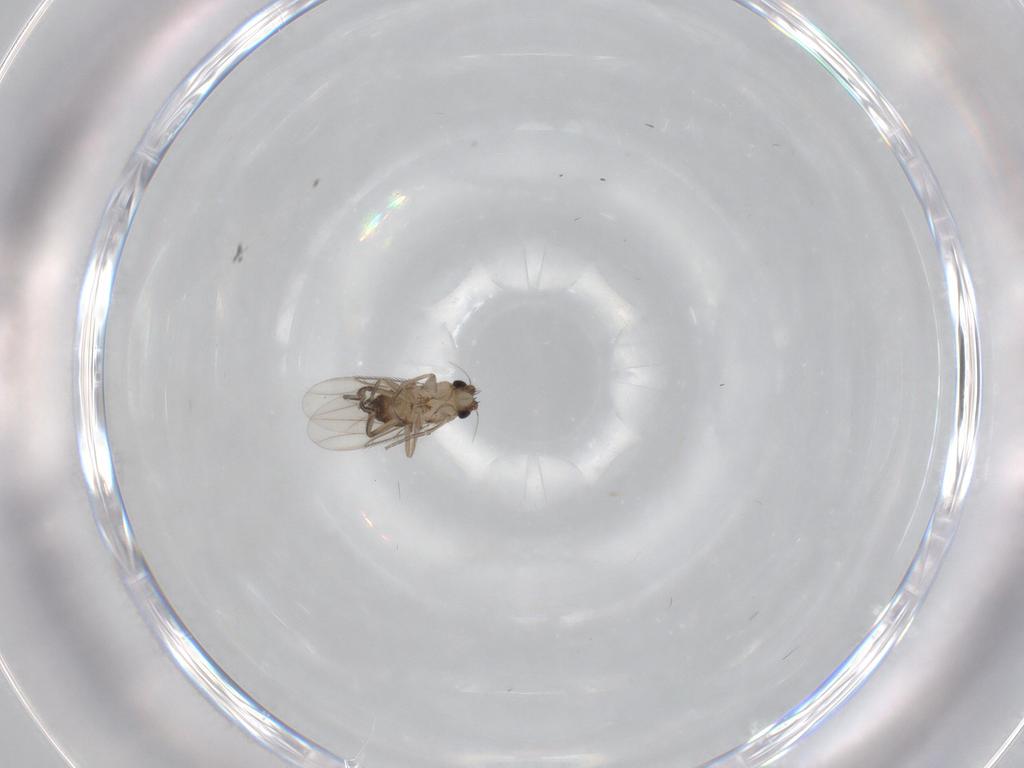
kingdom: Animalia
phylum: Arthropoda
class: Insecta
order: Diptera
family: Phoridae
